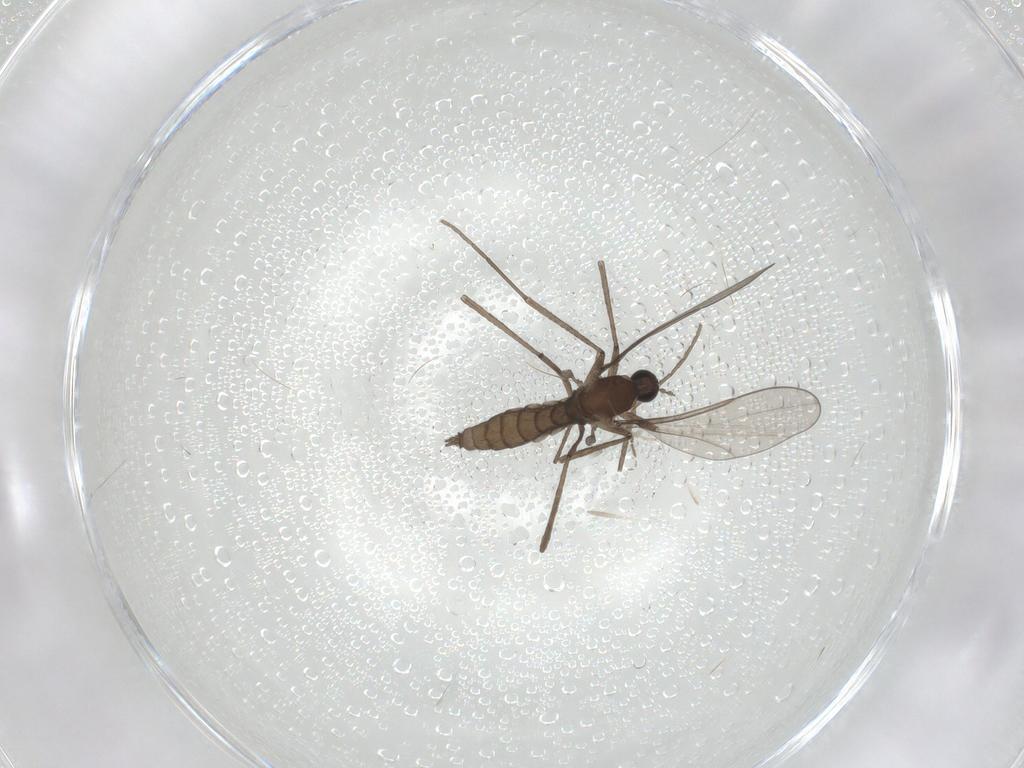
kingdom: Animalia
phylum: Arthropoda
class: Insecta
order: Diptera
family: Cecidomyiidae
